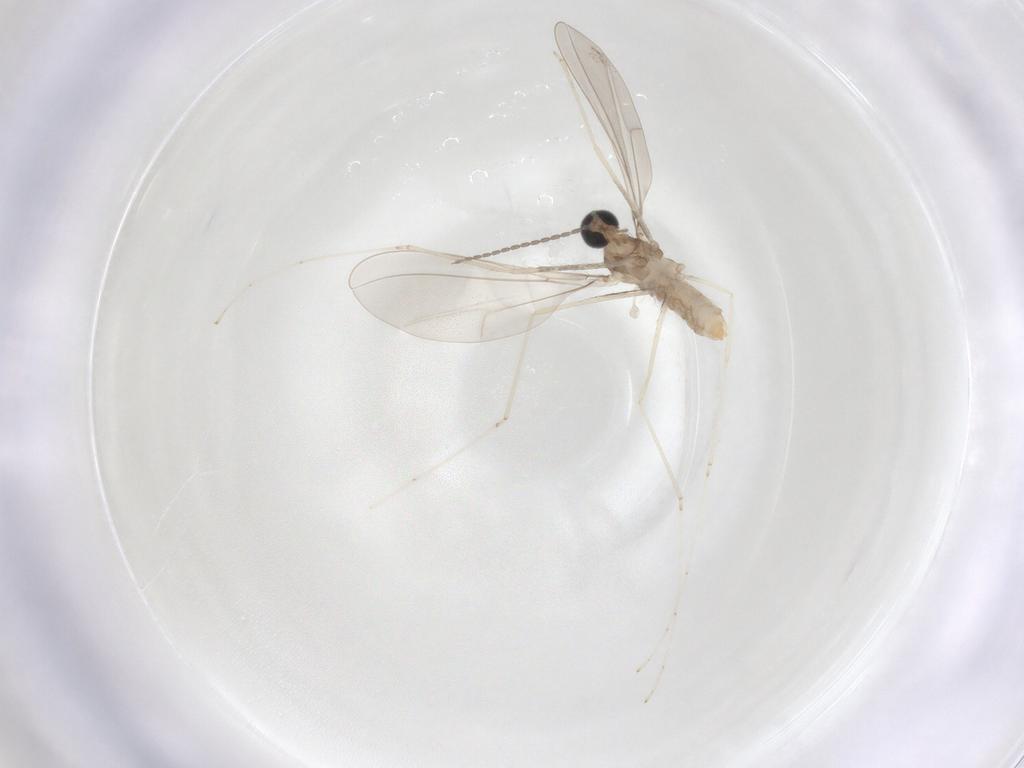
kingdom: Animalia
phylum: Arthropoda
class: Insecta
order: Diptera
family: Cecidomyiidae
